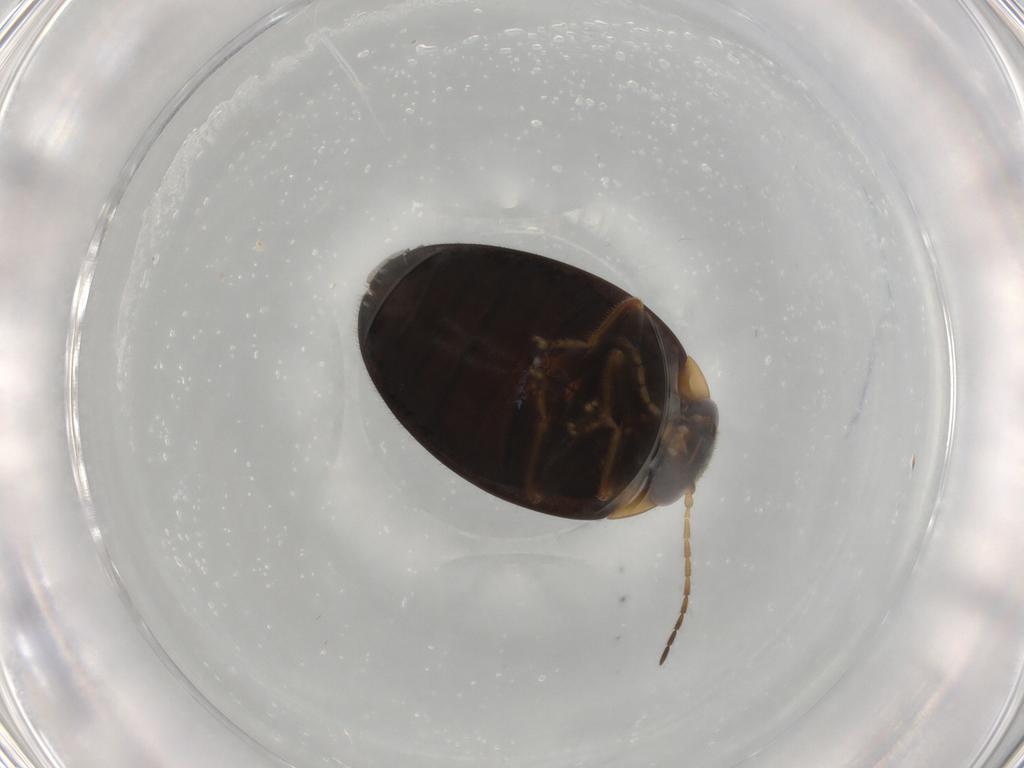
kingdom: Animalia
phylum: Arthropoda
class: Insecta
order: Coleoptera
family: Scirtidae
